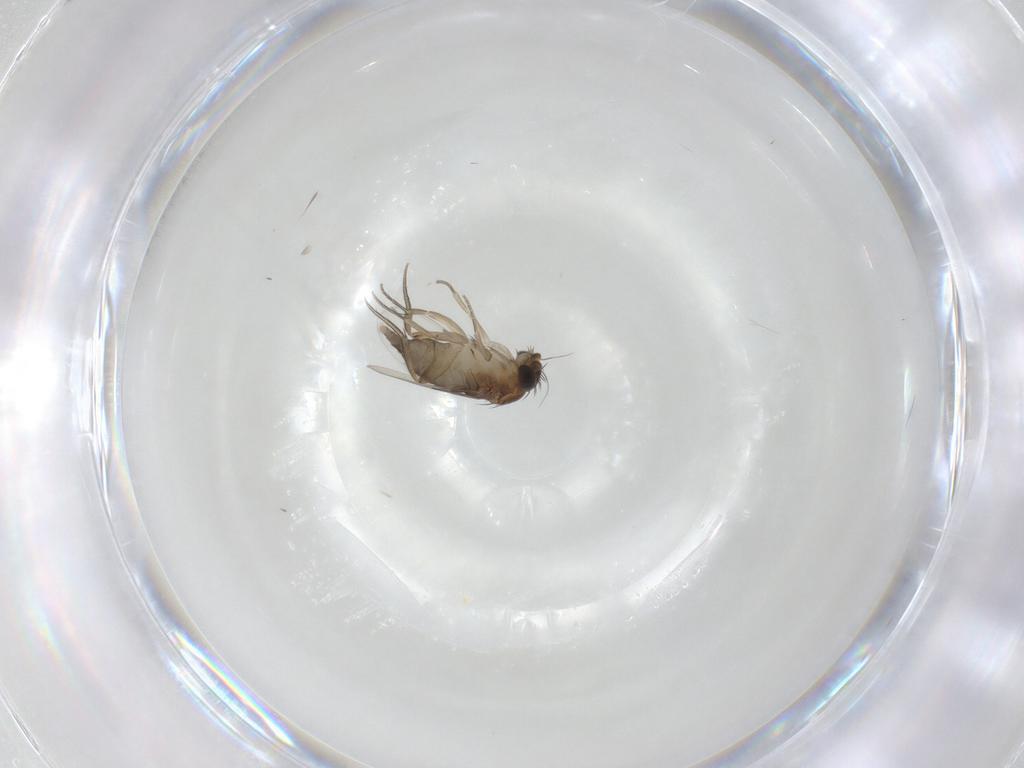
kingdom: Animalia
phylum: Arthropoda
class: Insecta
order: Diptera
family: Phoridae
